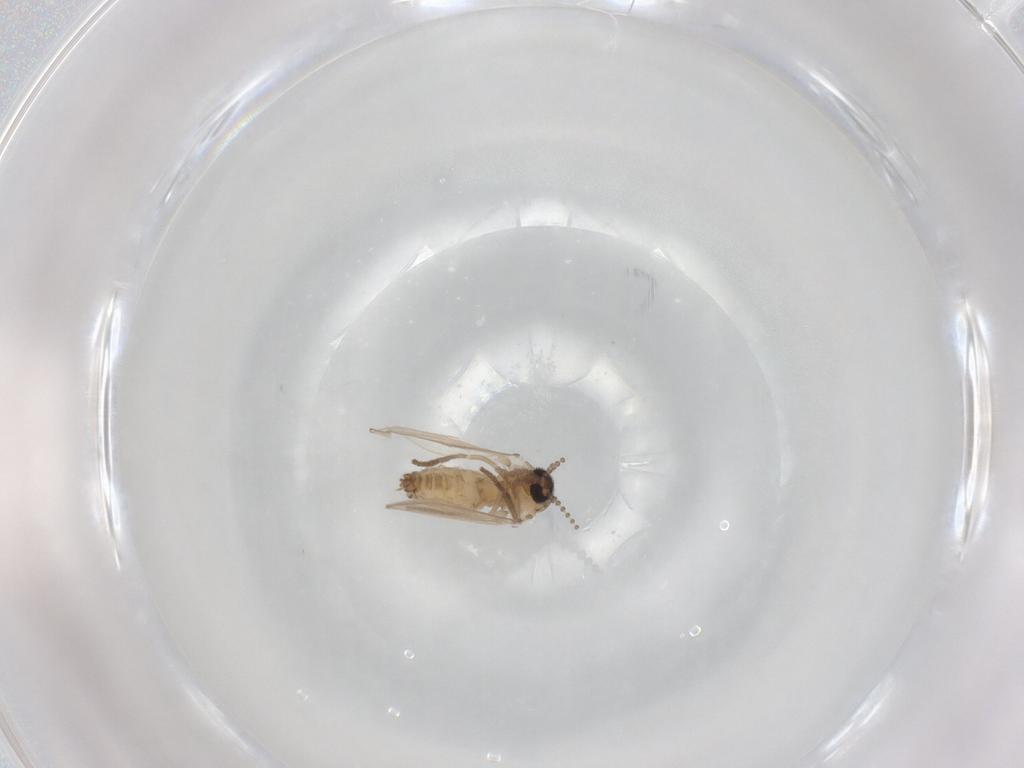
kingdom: Animalia
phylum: Arthropoda
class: Insecta
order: Diptera
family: Psychodidae
